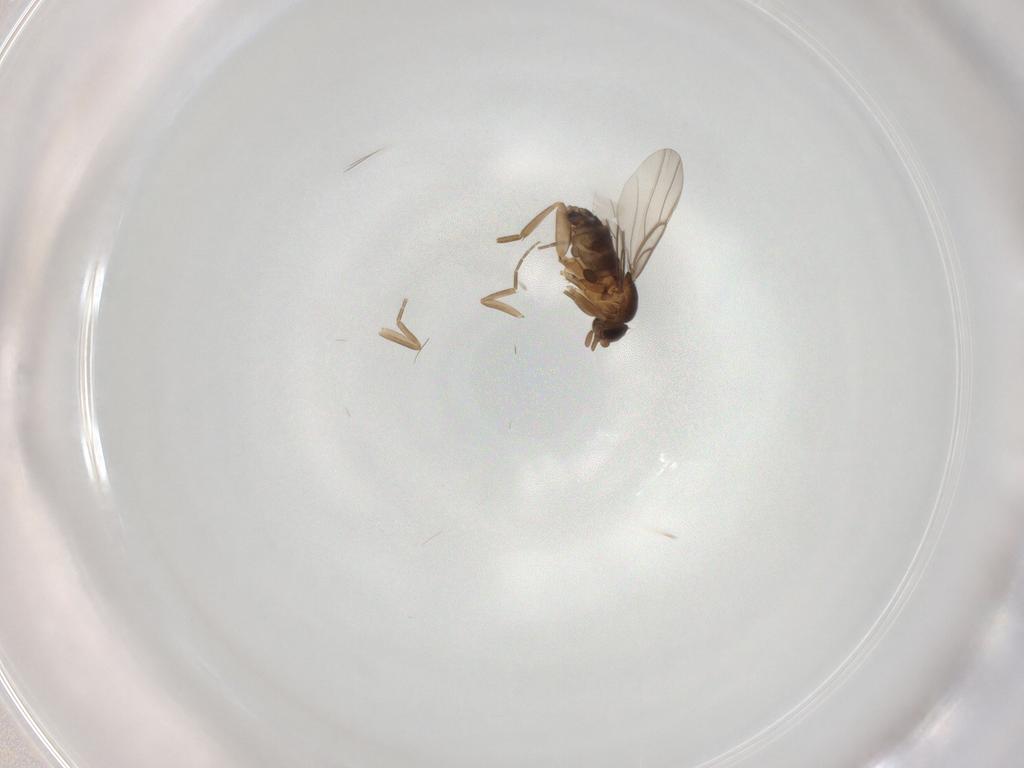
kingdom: Animalia
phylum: Arthropoda
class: Insecta
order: Diptera
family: Phoridae
